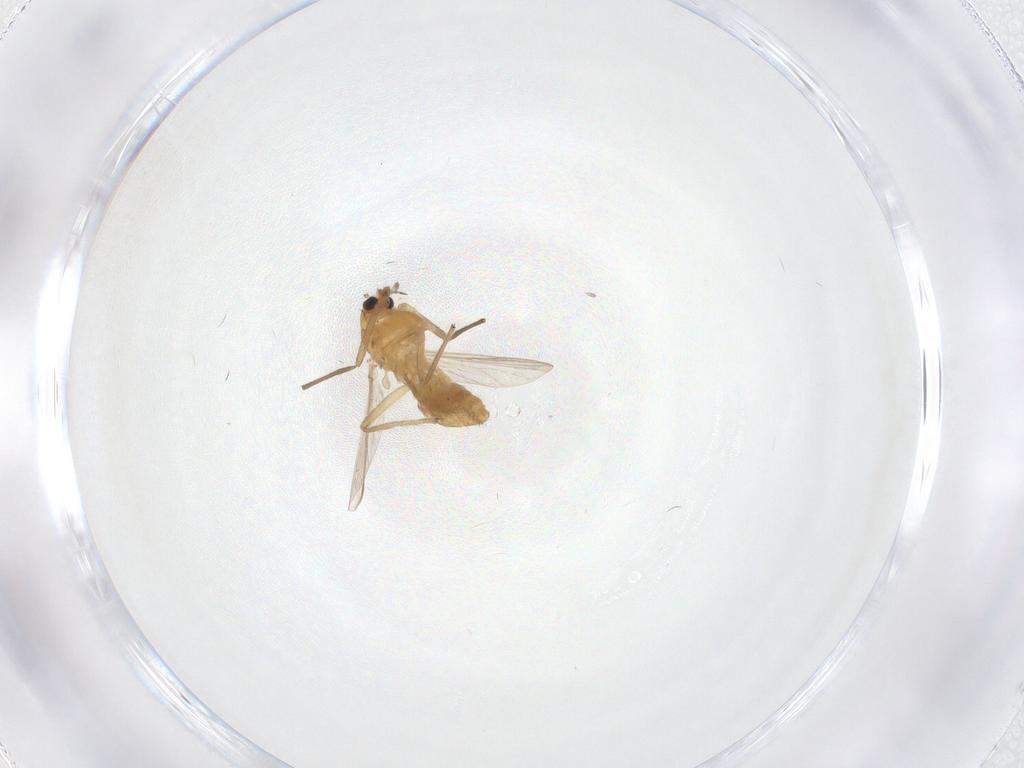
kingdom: Animalia
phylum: Arthropoda
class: Insecta
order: Diptera
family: Chironomidae
